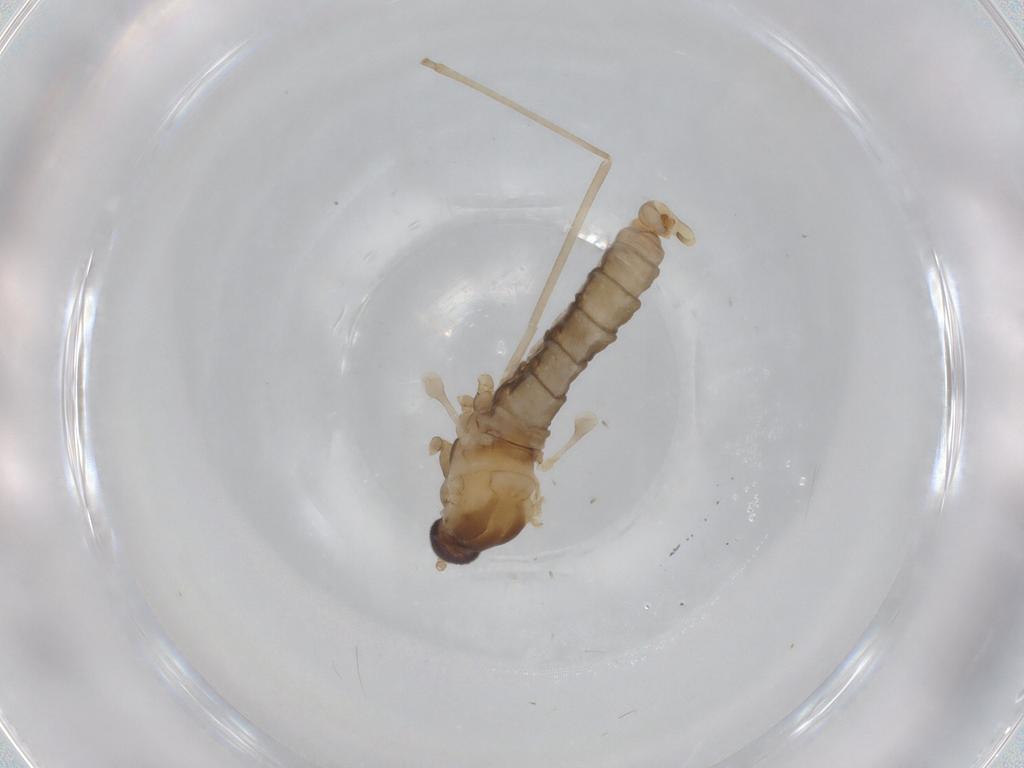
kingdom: Animalia
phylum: Arthropoda
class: Insecta
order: Diptera
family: Cecidomyiidae
